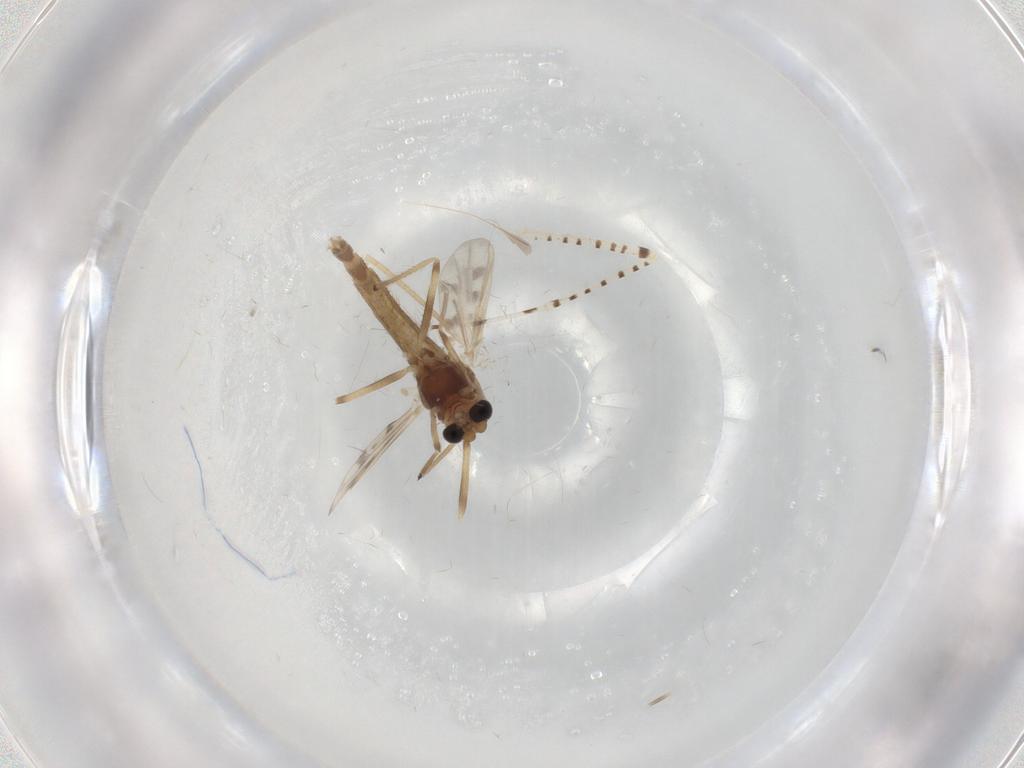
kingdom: Animalia
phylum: Arthropoda
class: Insecta
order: Diptera
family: Chironomidae
